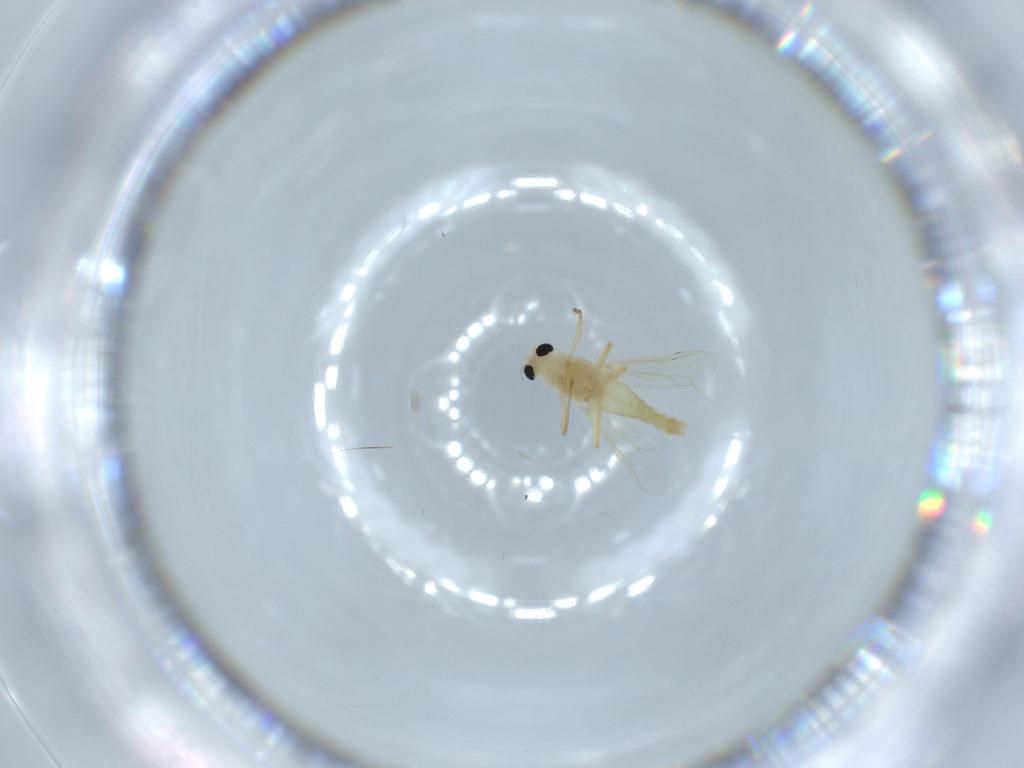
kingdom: Animalia
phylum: Arthropoda
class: Insecta
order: Diptera
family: Chironomidae
